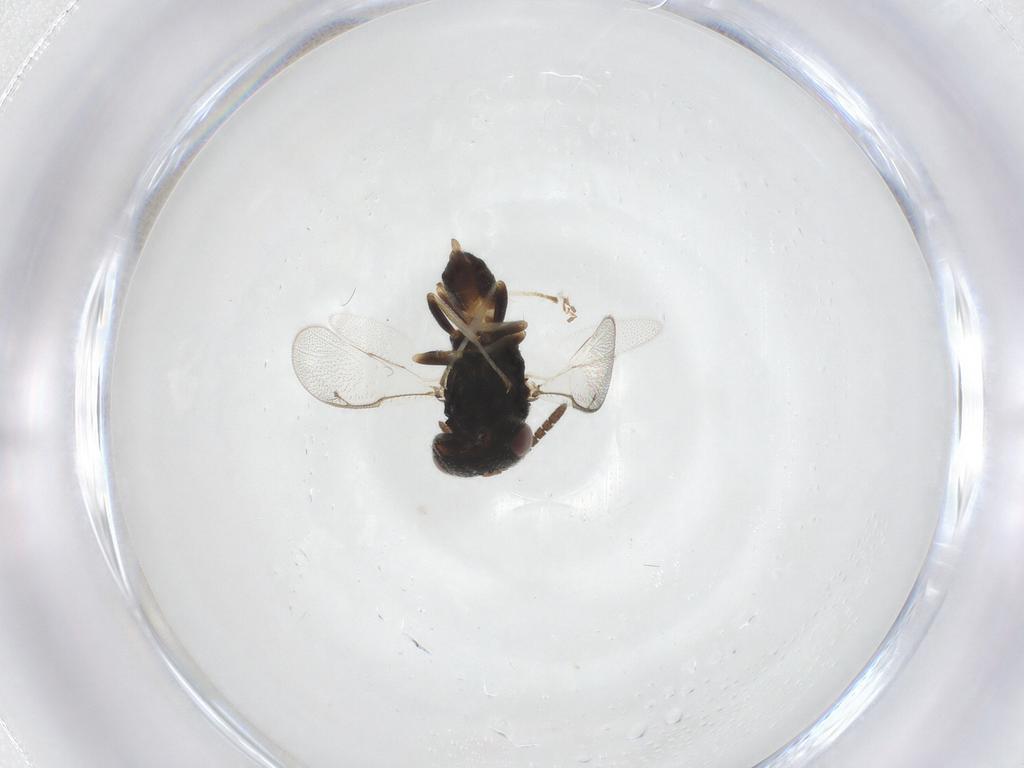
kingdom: Animalia
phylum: Arthropoda
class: Insecta
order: Hymenoptera
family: Pteromalidae
